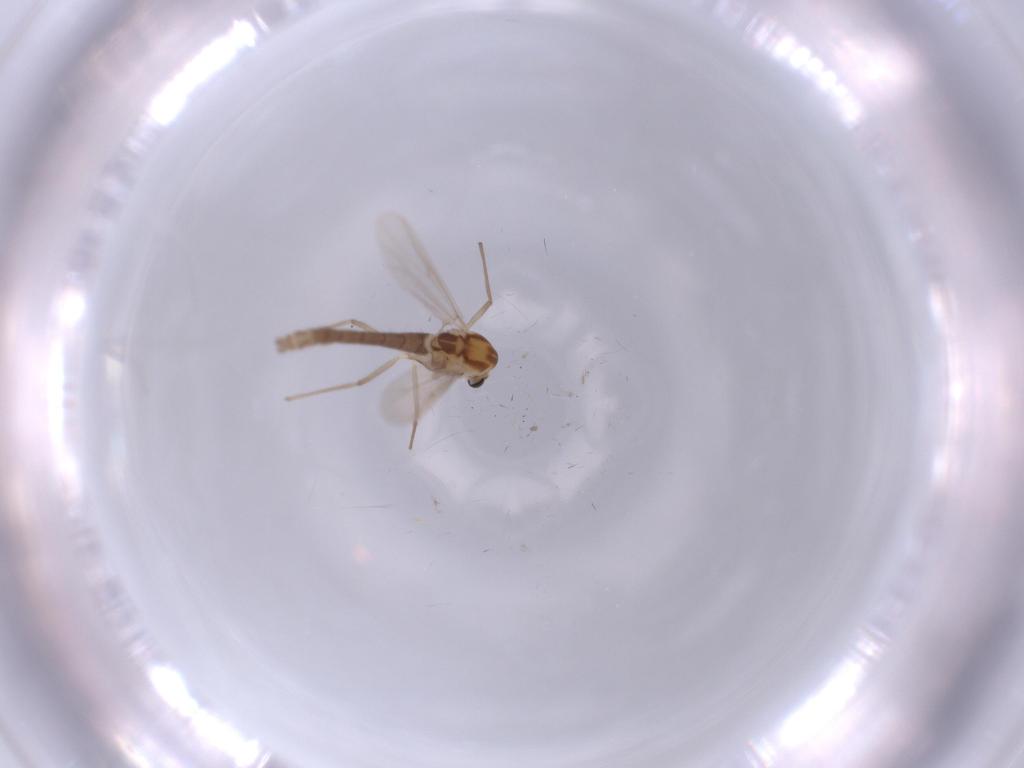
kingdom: Animalia
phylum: Arthropoda
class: Insecta
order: Diptera
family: Chironomidae
